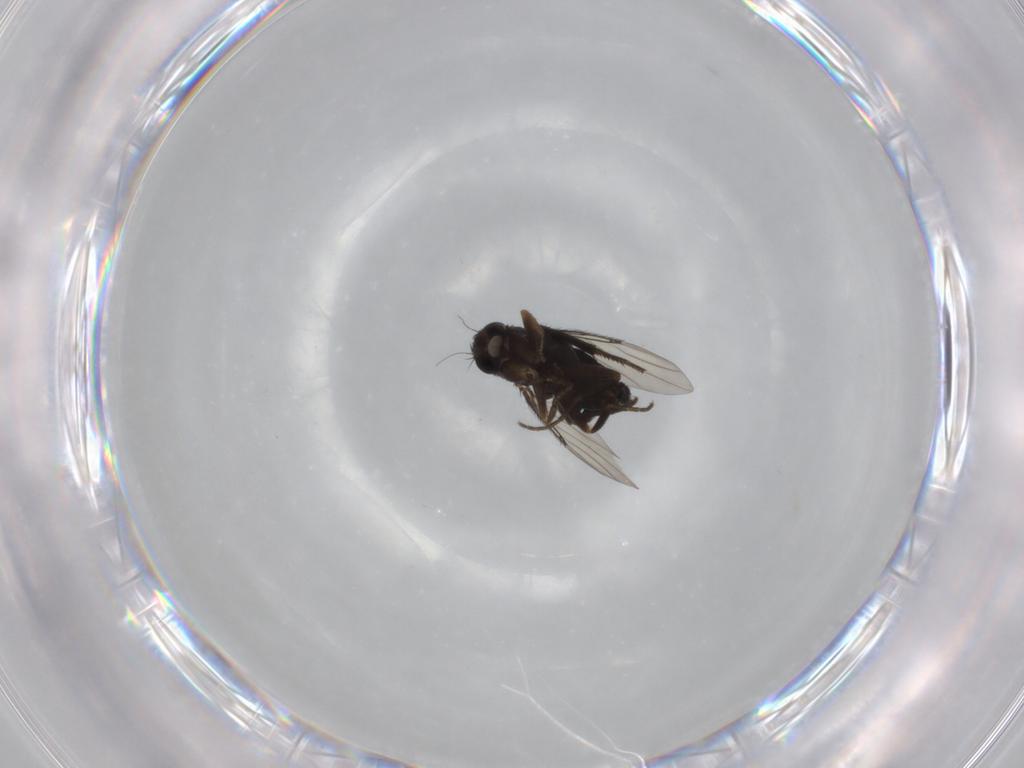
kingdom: Animalia
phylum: Arthropoda
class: Insecta
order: Diptera
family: Phoridae
